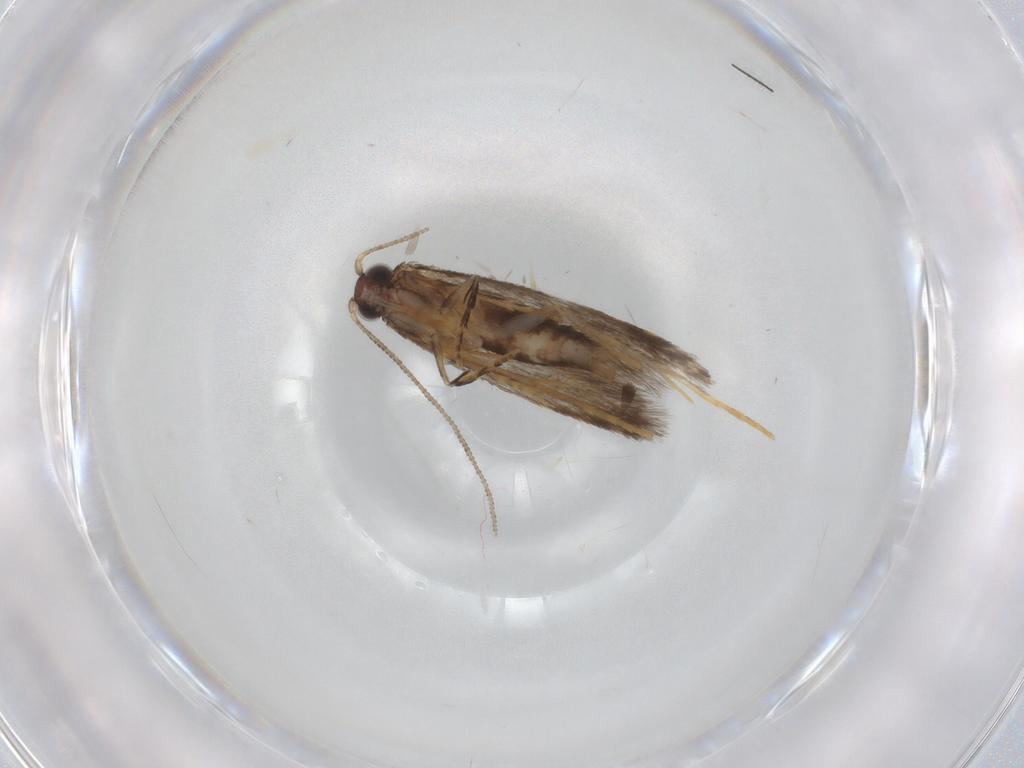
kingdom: Animalia
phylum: Arthropoda
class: Insecta
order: Lepidoptera
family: Tineidae
